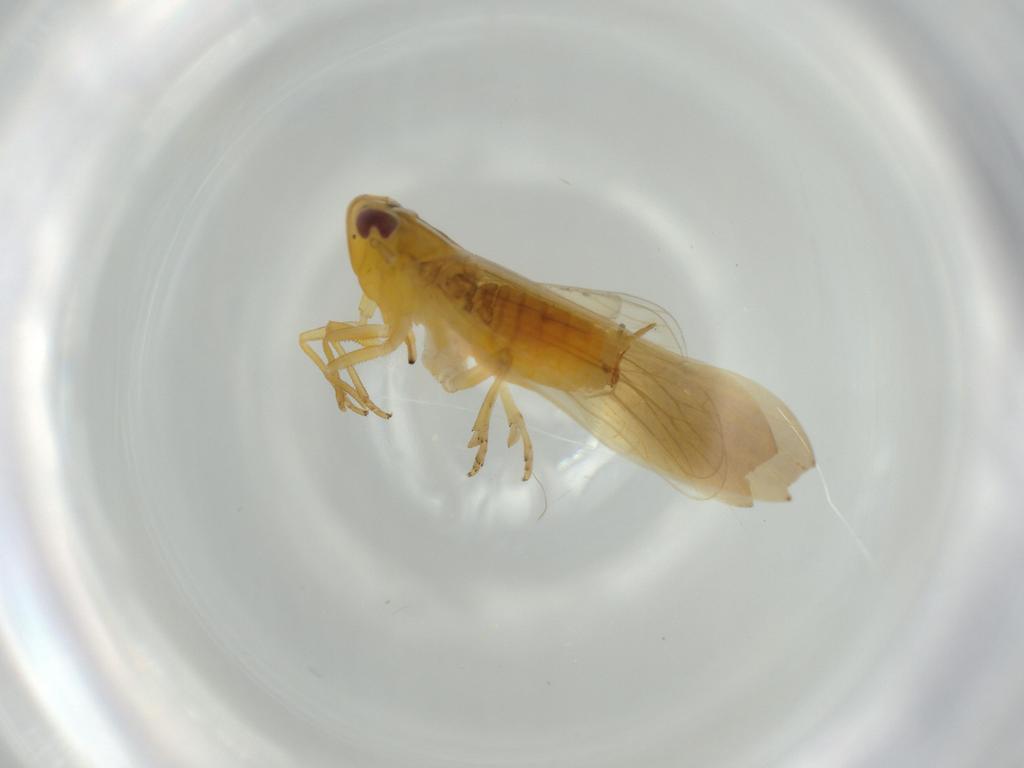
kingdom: Animalia
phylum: Arthropoda
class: Insecta
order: Hemiptera
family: Delphacidae
